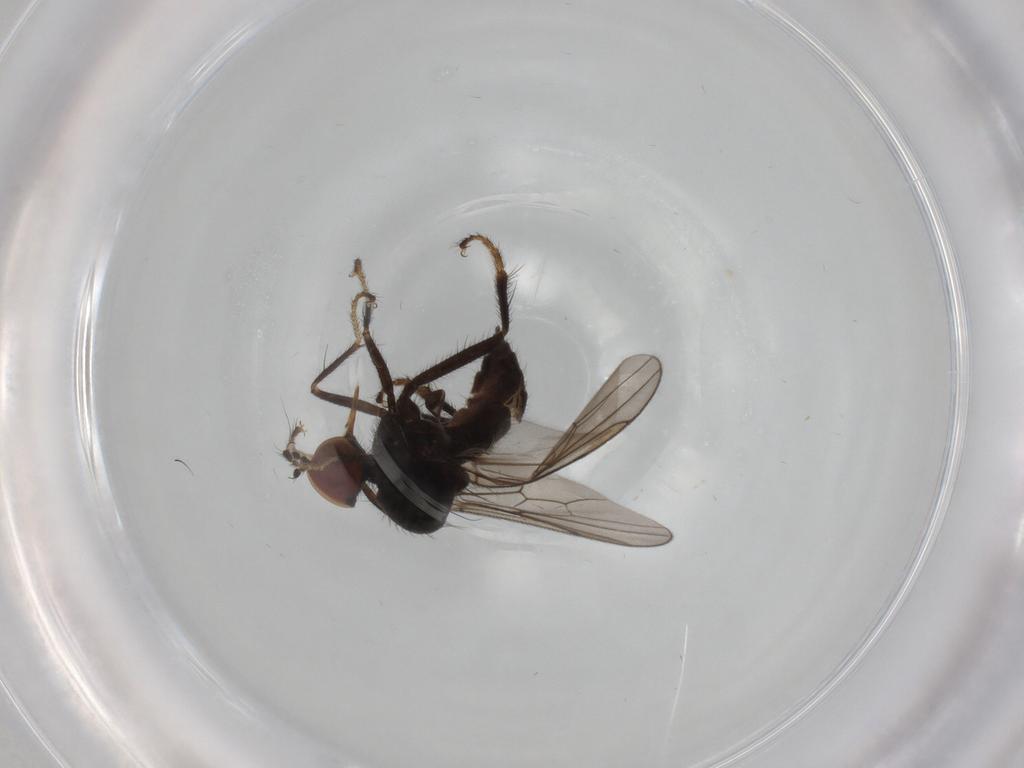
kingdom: Animalia
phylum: Arthropoda
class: Insecta
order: Diptera
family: Hybotidae
